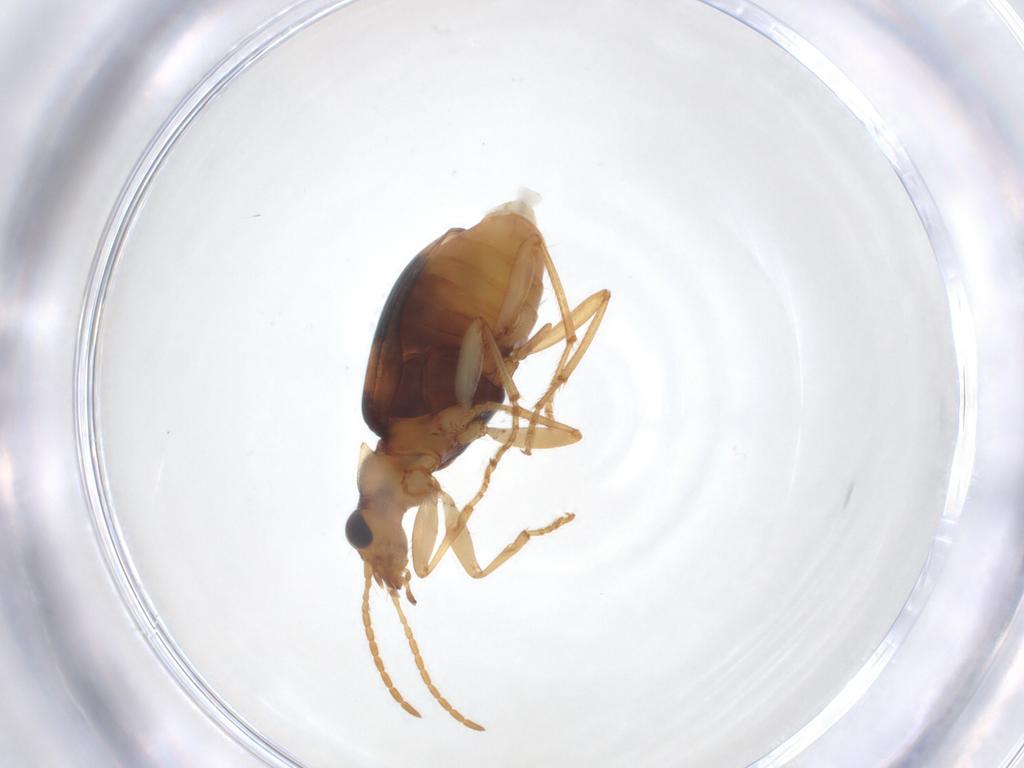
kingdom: Animalia
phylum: Arthropoda
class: Insecta
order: Coleoptera
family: Carabidae
